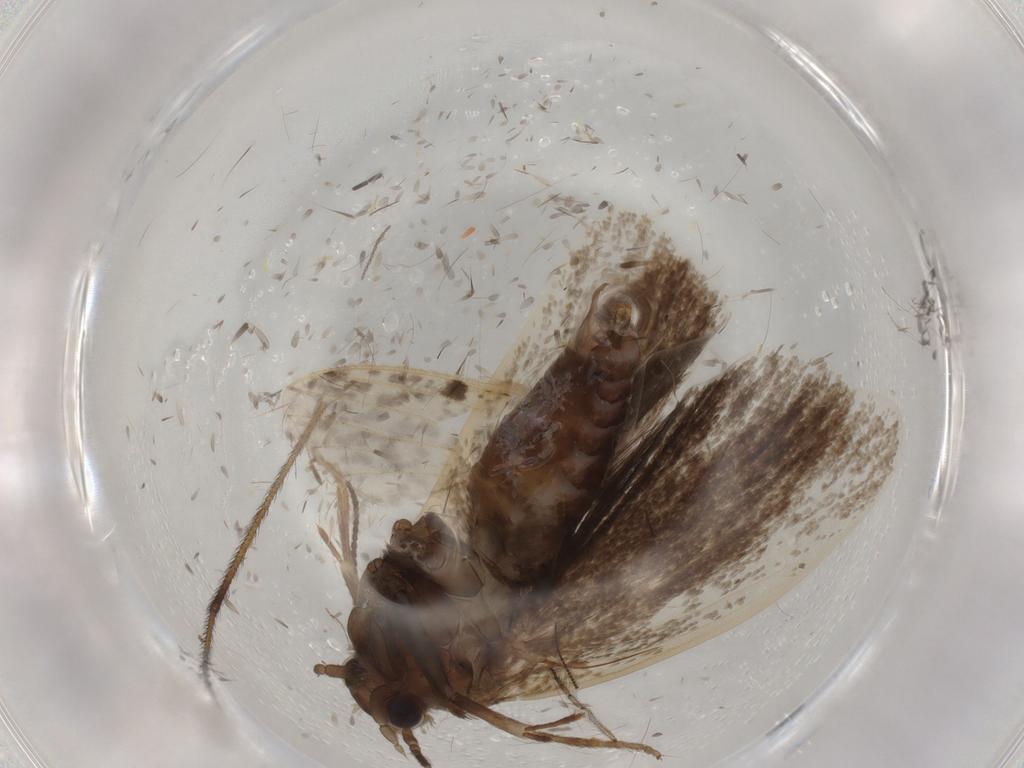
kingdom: Animalia
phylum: Arthropoda
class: Insecta
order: Lepidoptera
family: Tineidae
